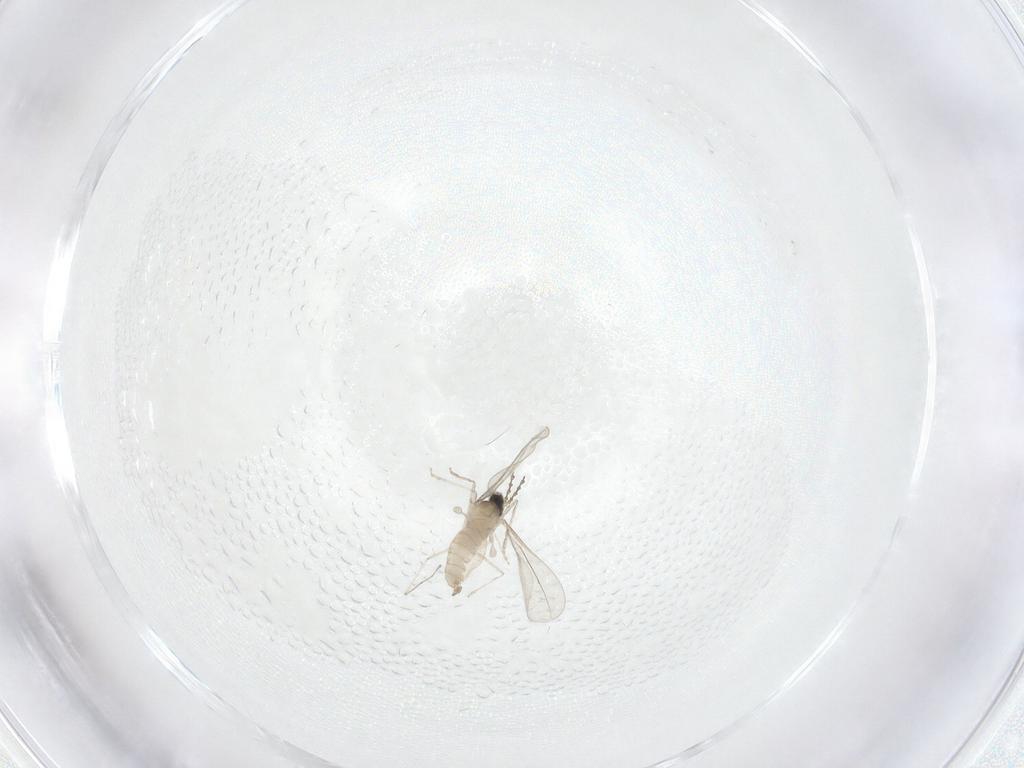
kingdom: Animalia
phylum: Arthropoda
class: Insecta
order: Diptera
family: Cecidomyiidae
